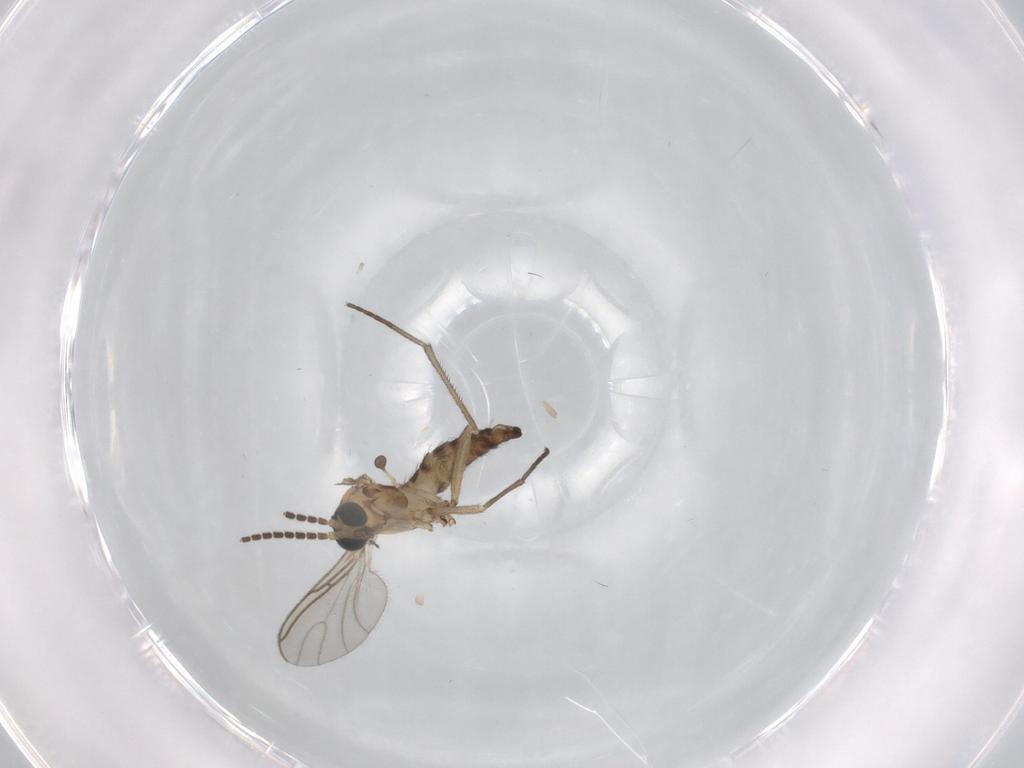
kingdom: Animalia
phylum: Arthropoda
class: Insecta
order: Diptera
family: Sciaridae
